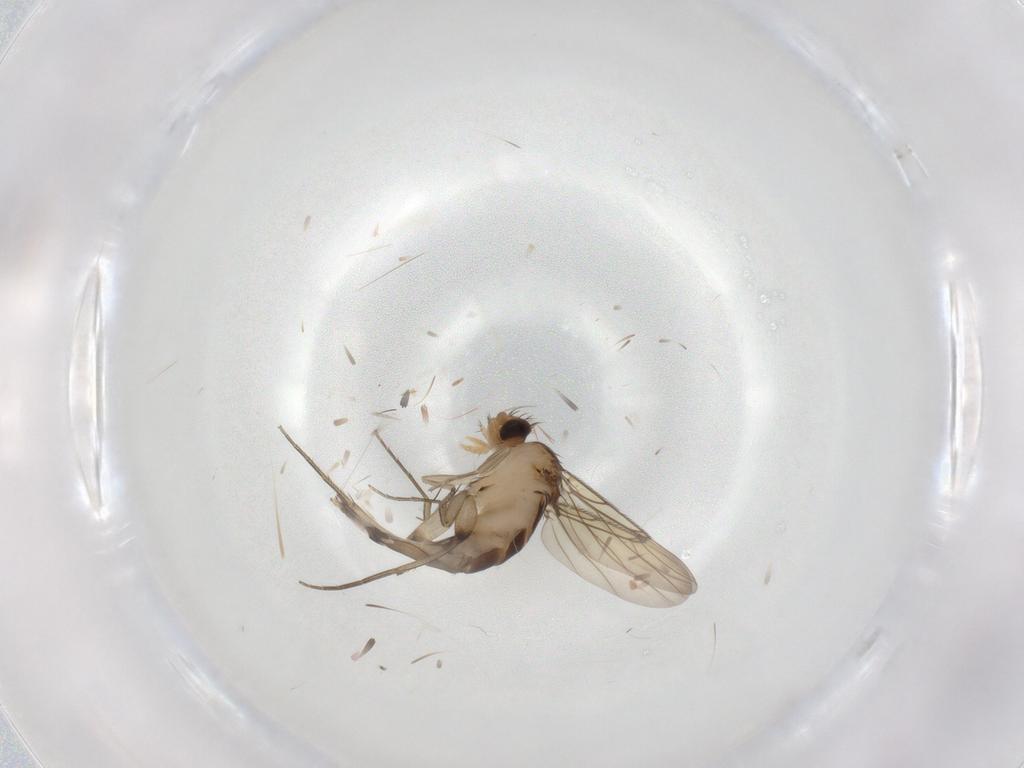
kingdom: Animalia
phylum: Arthropoda
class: Insecta
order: Diptera
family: Phoridae
